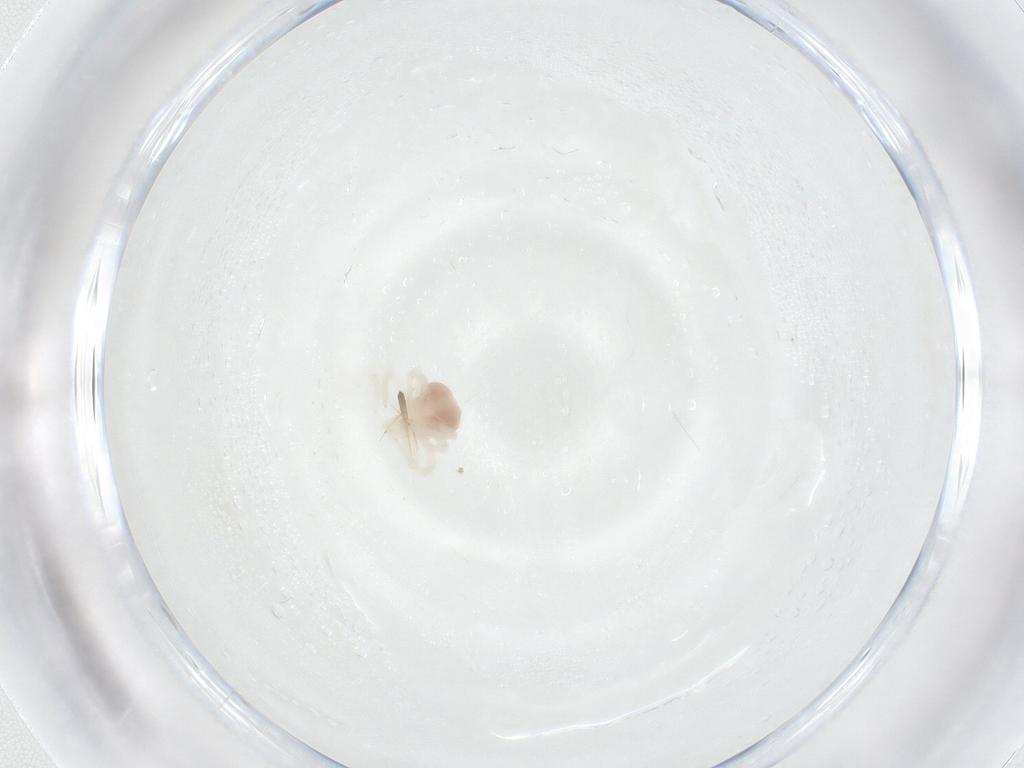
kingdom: Animalia
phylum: Arthropoda
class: Arachnida
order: Trombidiformes
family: Anystidae
